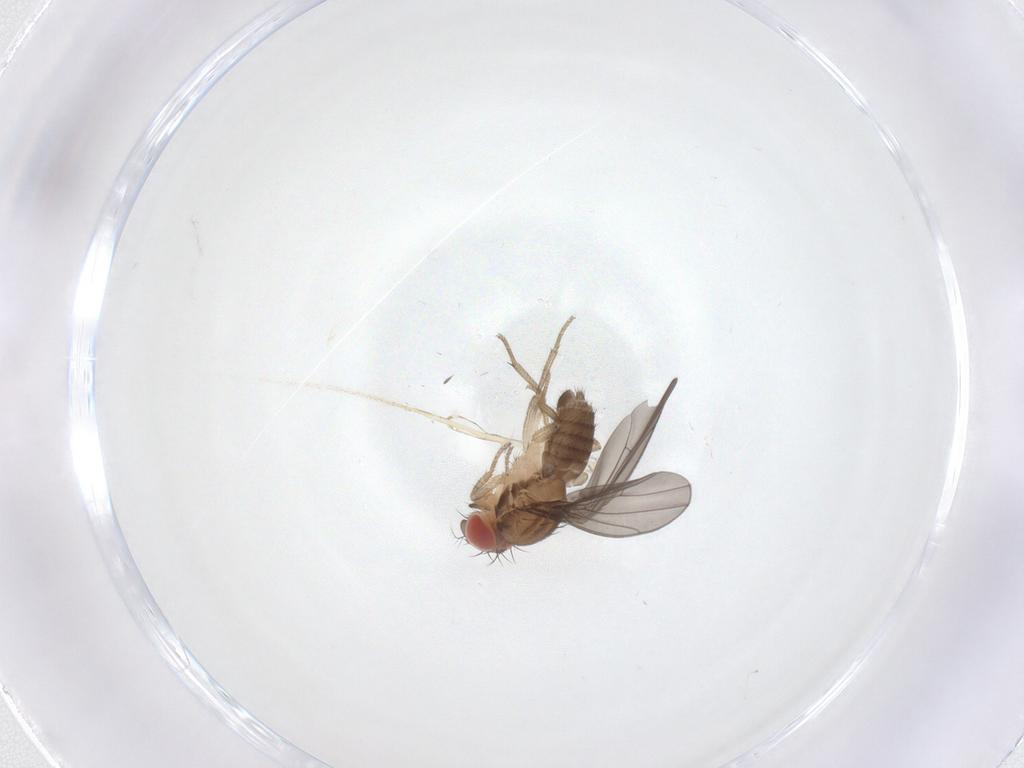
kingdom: Animalia
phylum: Arthropoda
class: Insecta
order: Diptera
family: Drosophilidae
